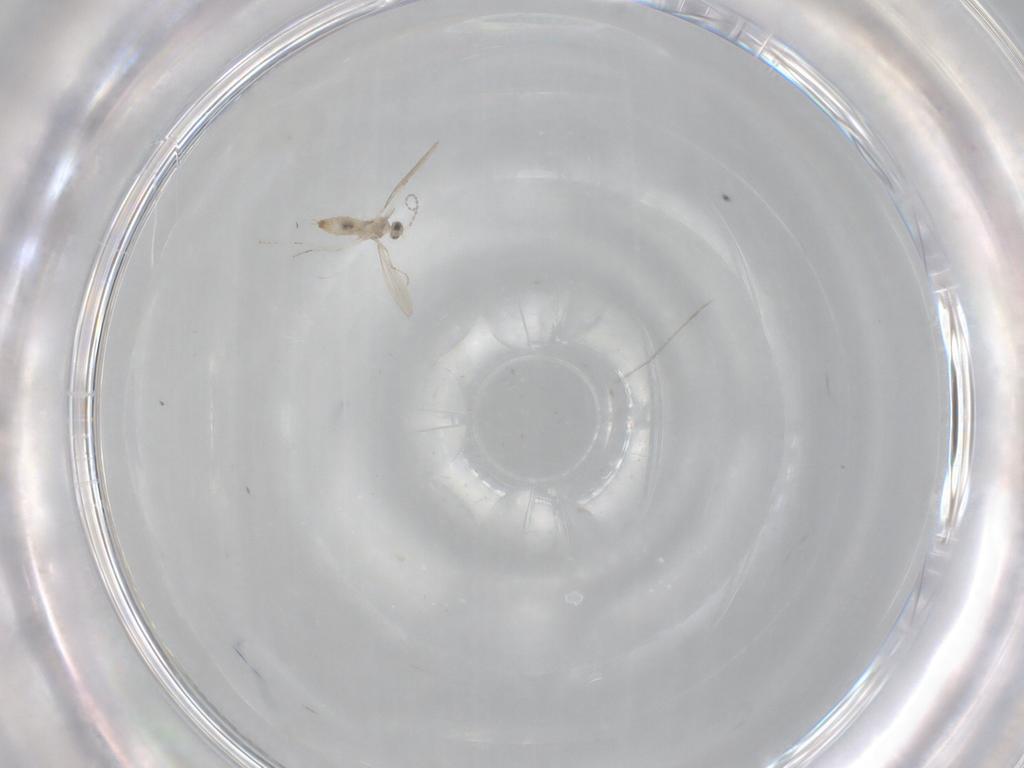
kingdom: Animalia
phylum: Arthropoda
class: Insecta
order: Diptera
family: Cecidomyiidae
